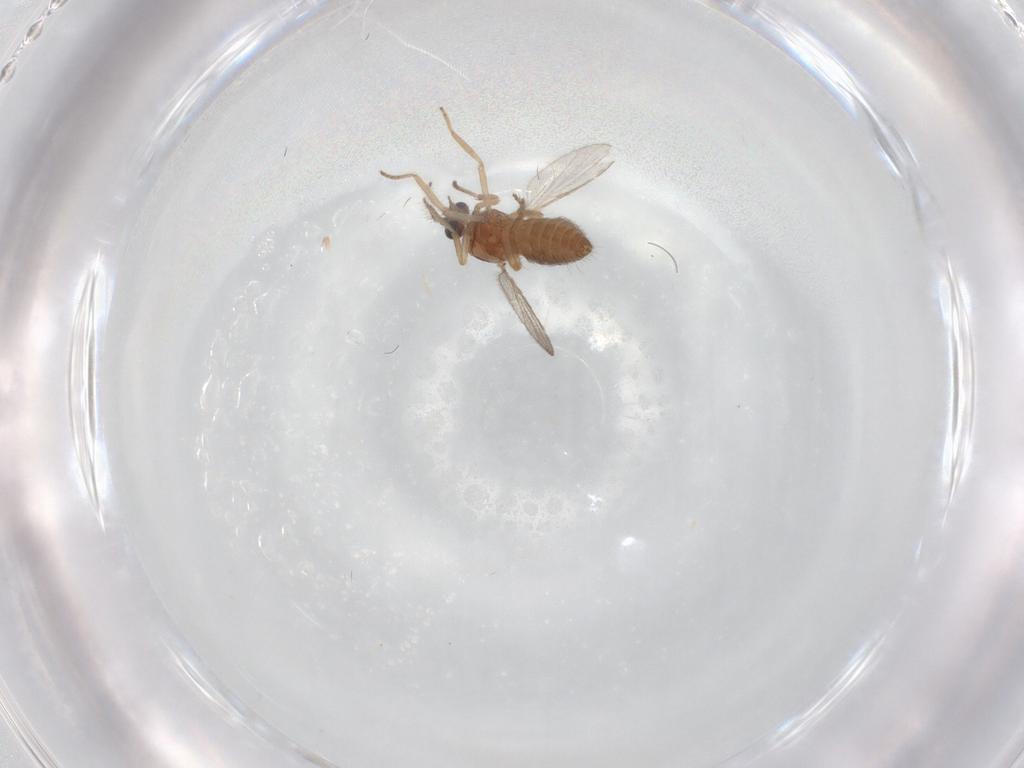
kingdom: Animalia
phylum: Arthropoda
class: Insecta
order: Diptera
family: Ceratopogonidae
